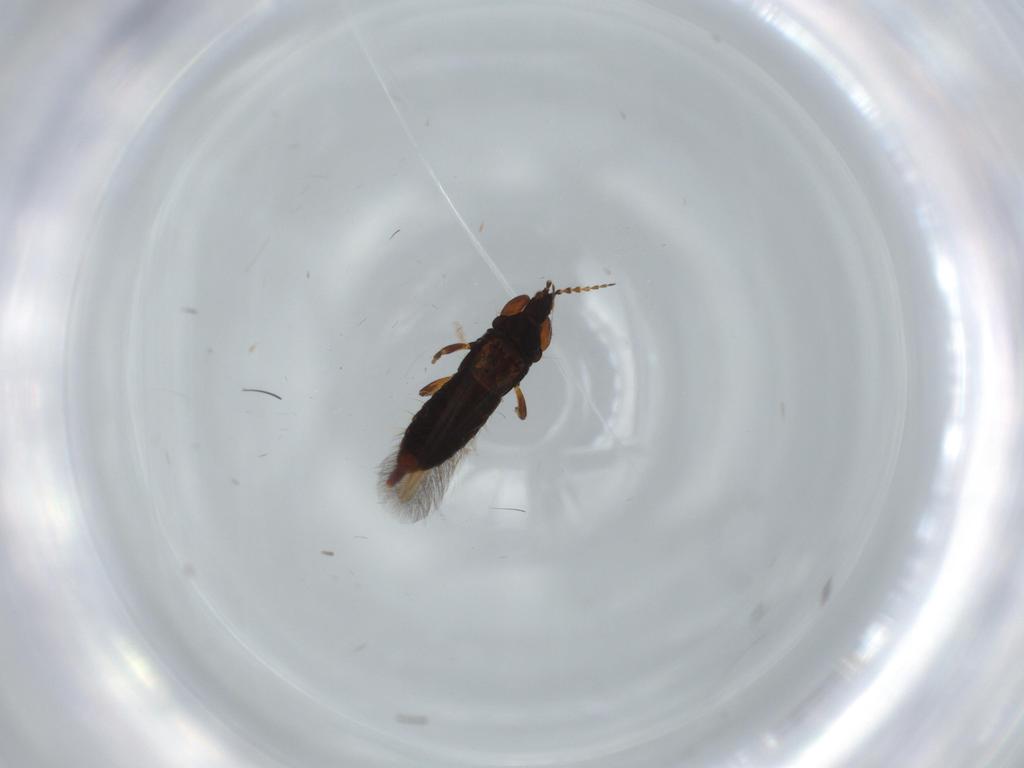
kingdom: Animalia
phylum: Arthropoda
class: Insecta
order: Thysanoptera
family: Phlaeothripidae
